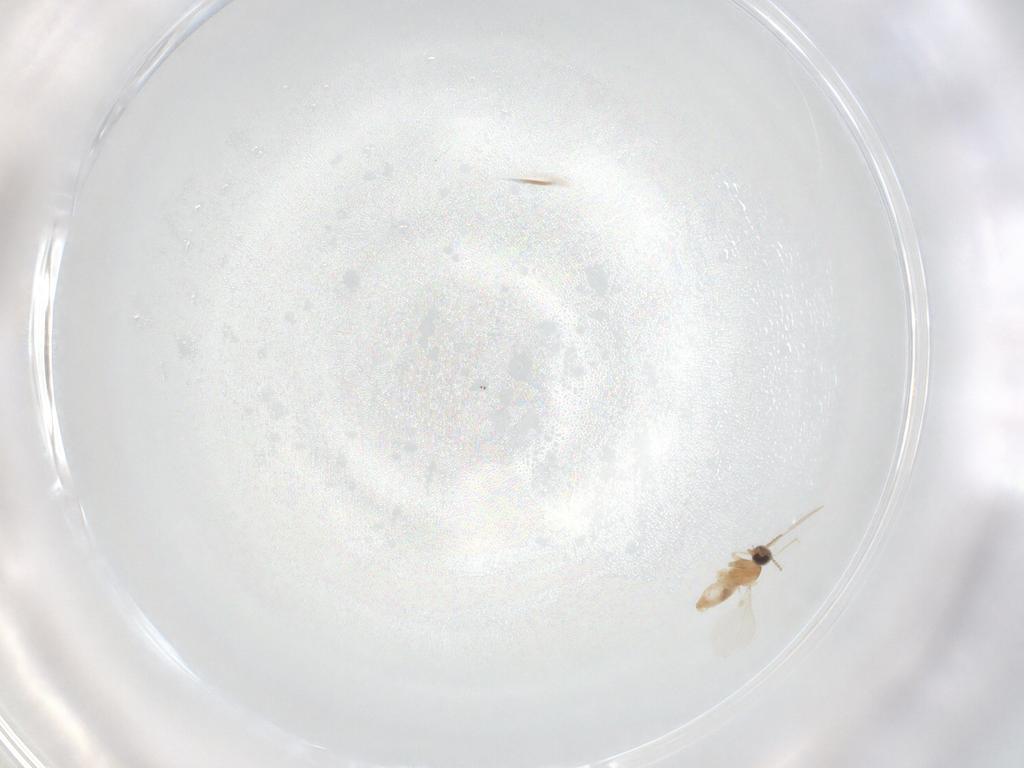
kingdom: Animalia
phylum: Arthropoda
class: Insecta
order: Diptera
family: Cecidomyiidae
